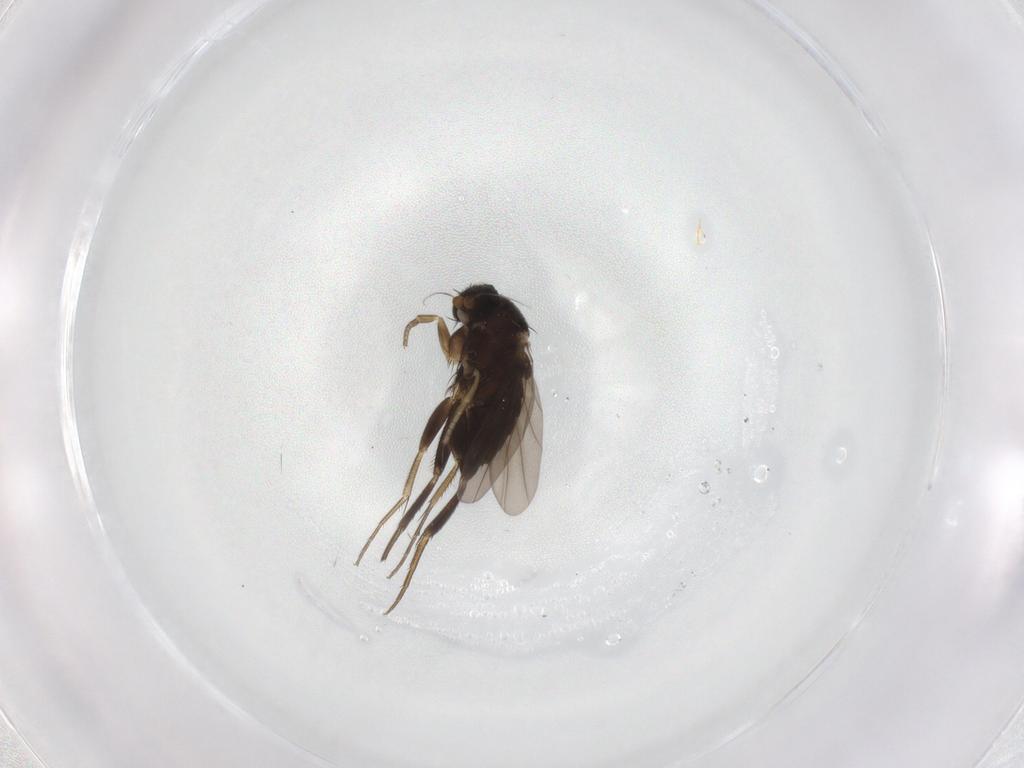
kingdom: Animalia
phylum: Arthropoda
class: Insecta
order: Diptera
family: Phoridae
